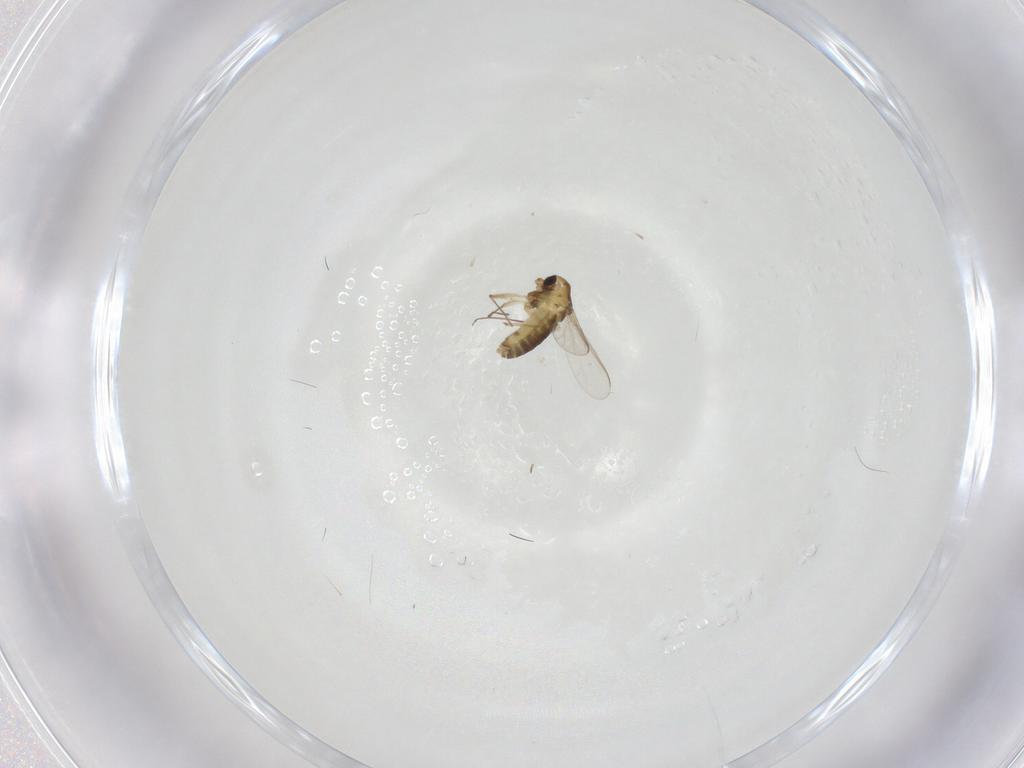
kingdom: Animalia
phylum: Arthropoda
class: Insecta
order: Diptera
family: Chironomidae
